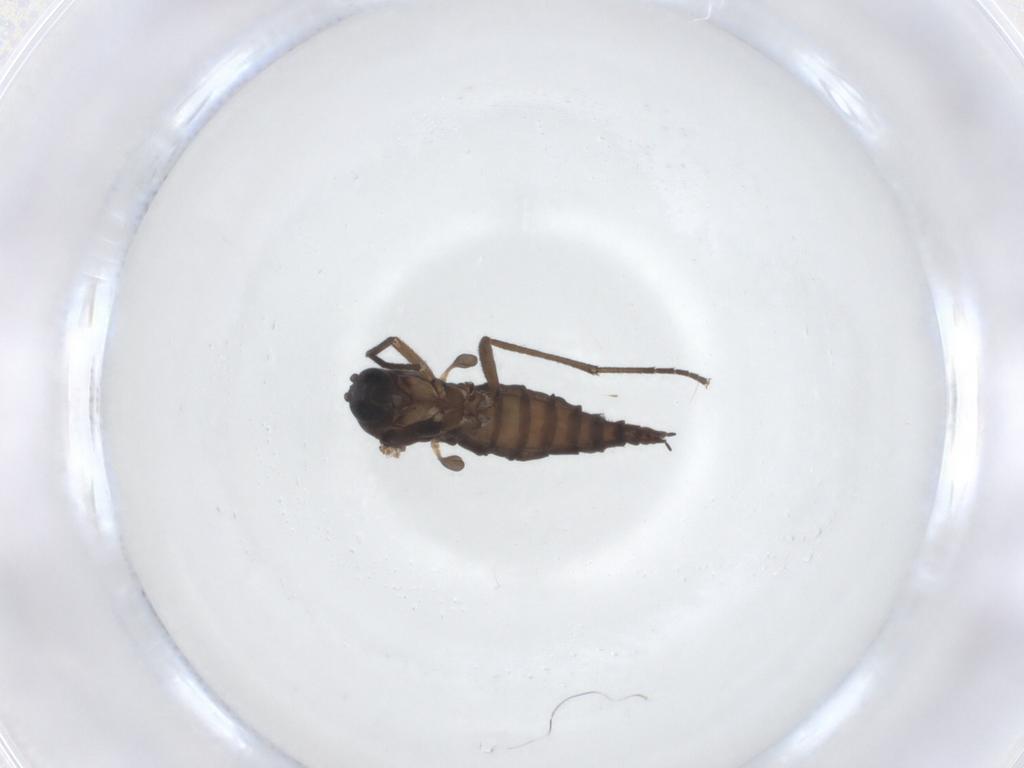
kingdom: Animalia
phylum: Arthropoda
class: Insecta
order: Diptera
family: Sciaridae
